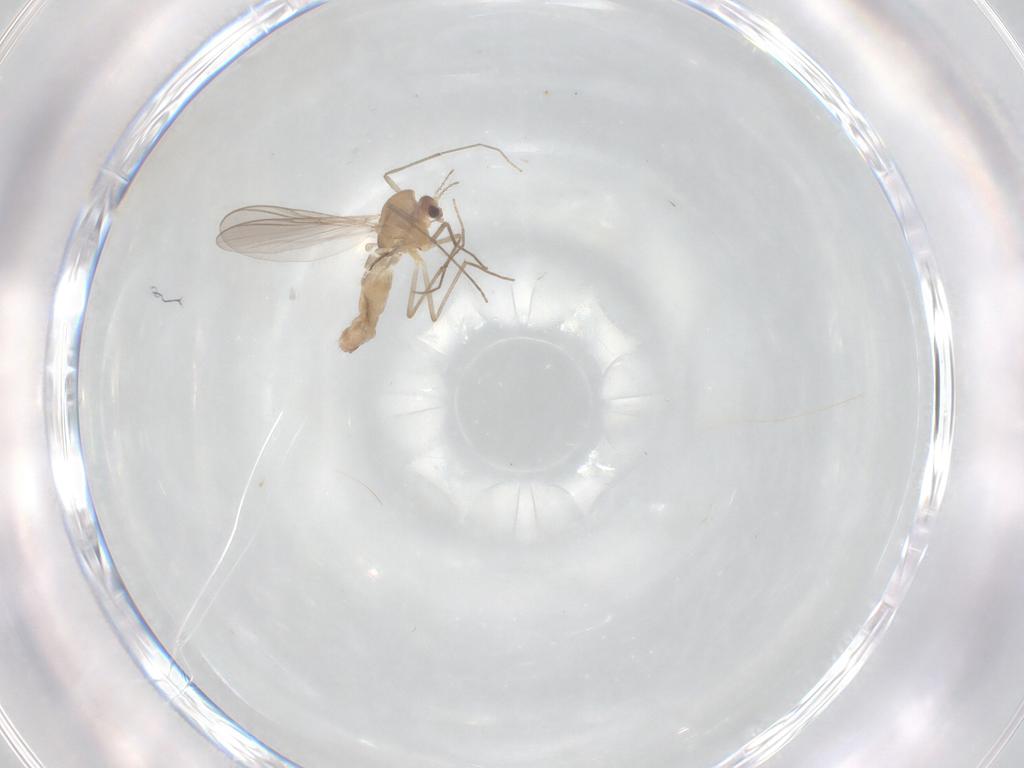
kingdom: Animalia
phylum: Arthropoda
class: Insecta
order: Diptera
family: Chironomidae
